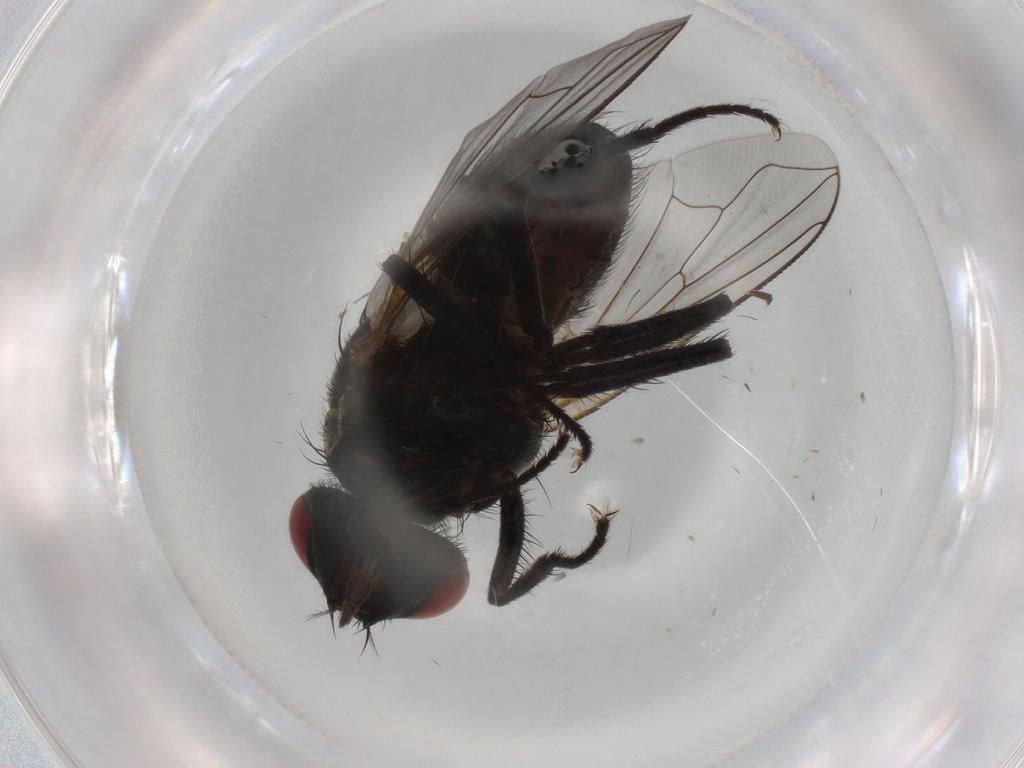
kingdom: Animalia
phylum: Arthropoda
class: Insecta
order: Diptera
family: Muscidae
